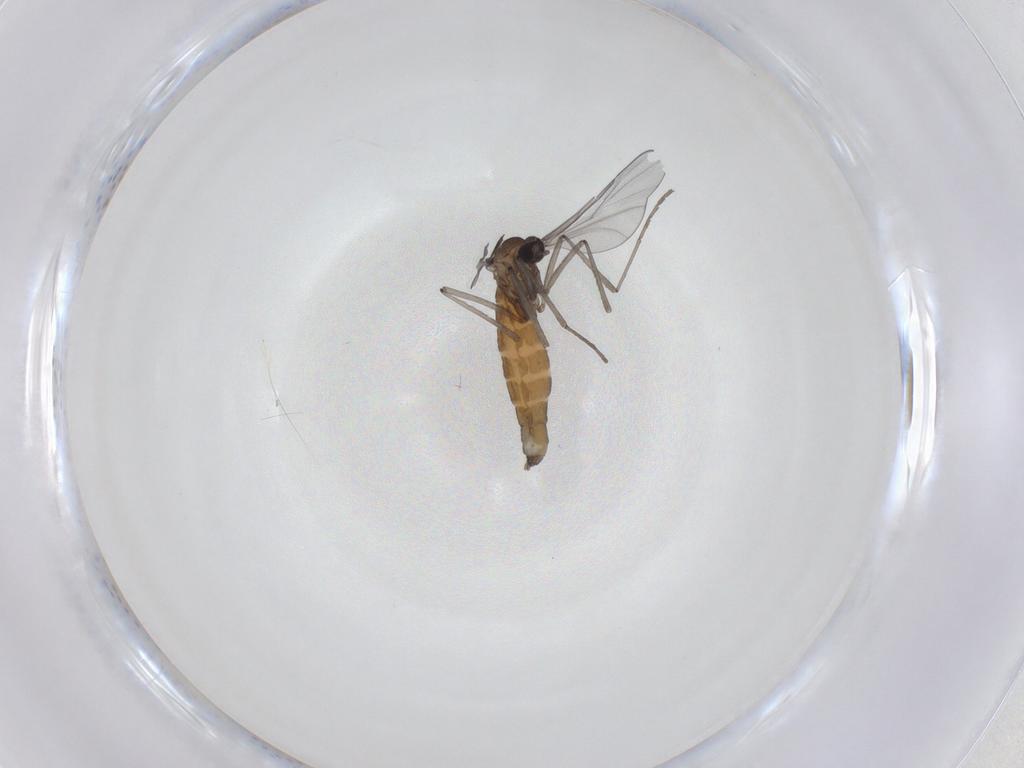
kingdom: Animalia
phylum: Arthropoda
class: Insecta
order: Diptera
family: Cecidomyiidae
